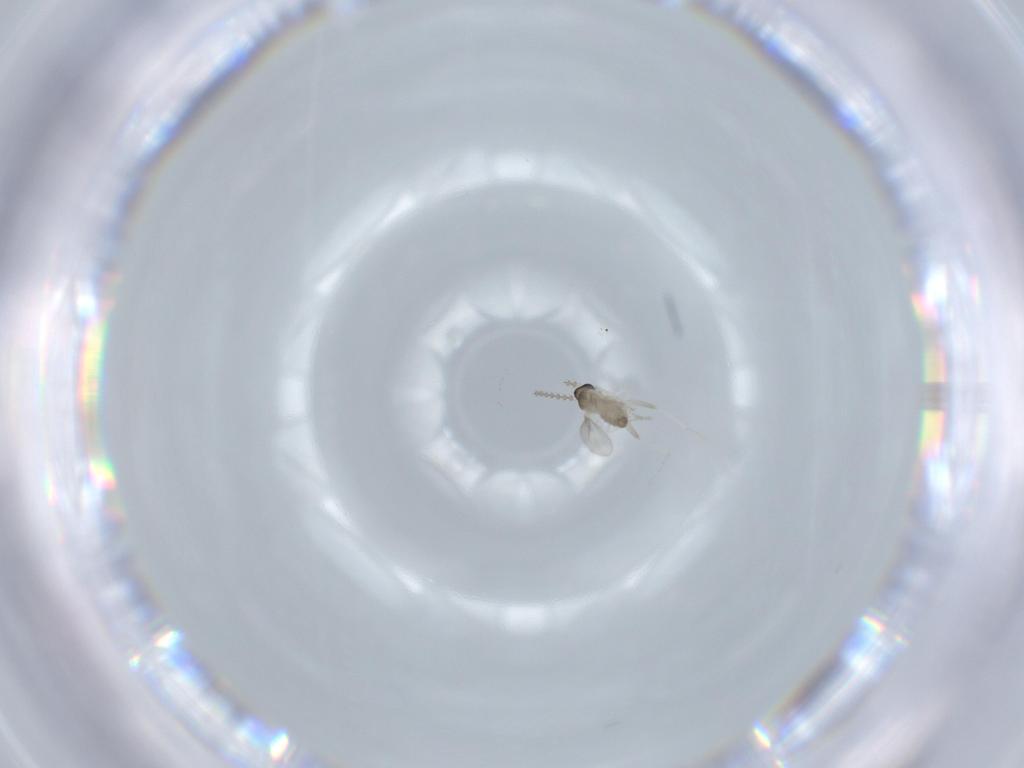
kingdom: Animalia
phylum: Arthropoda
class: Insecta
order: Diptera
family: Cecidomyiidae
